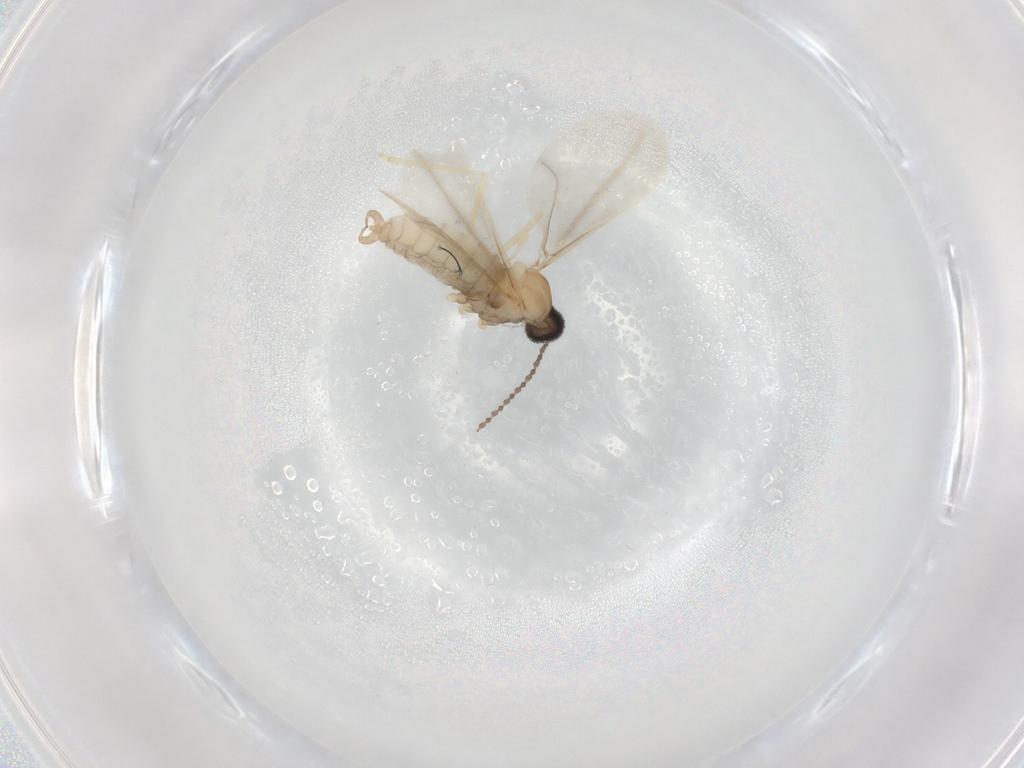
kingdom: Animalia
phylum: Arthropoda
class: Insecta
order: Diptera
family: Cecidomyiidae
